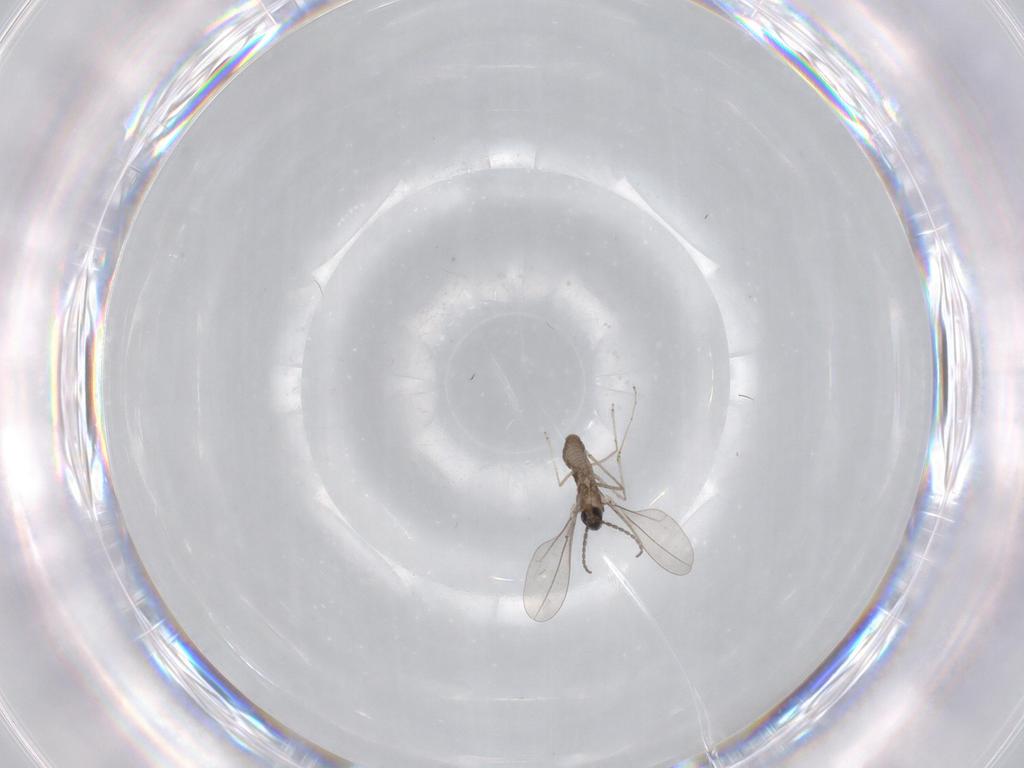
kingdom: Animalia
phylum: Arthropoda
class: Insecta
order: Diptera
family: Cecidomyiidae
